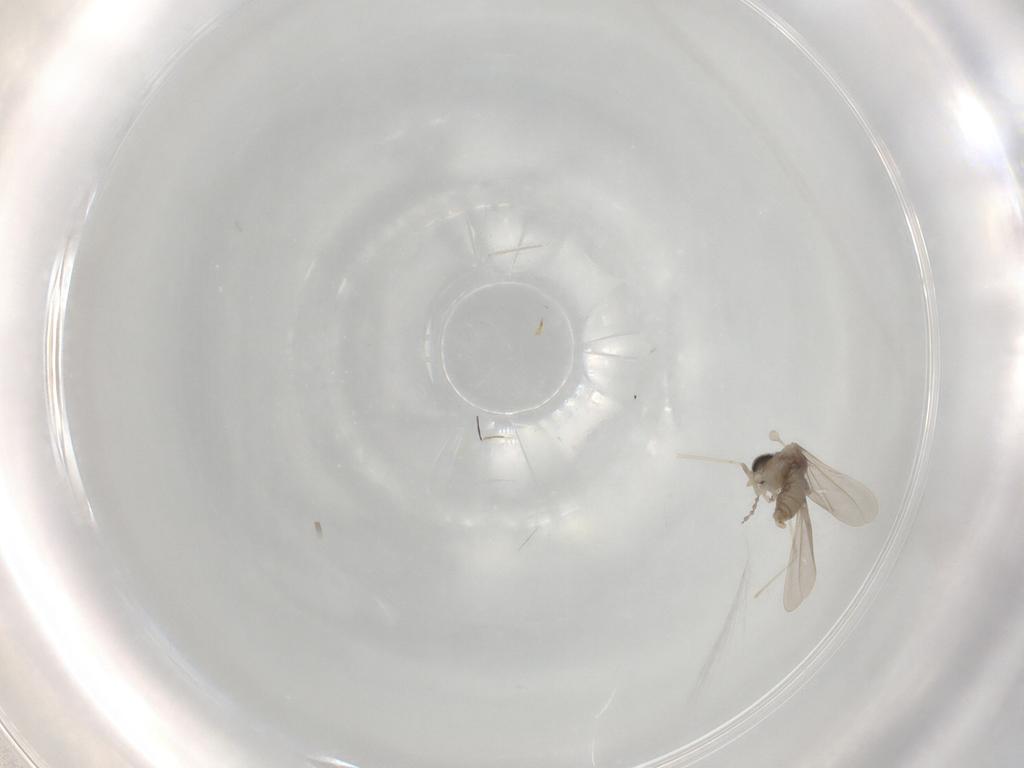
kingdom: Animalia
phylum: Arthropoda
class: Insecta
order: Diptera
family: Cecidomyiidae
